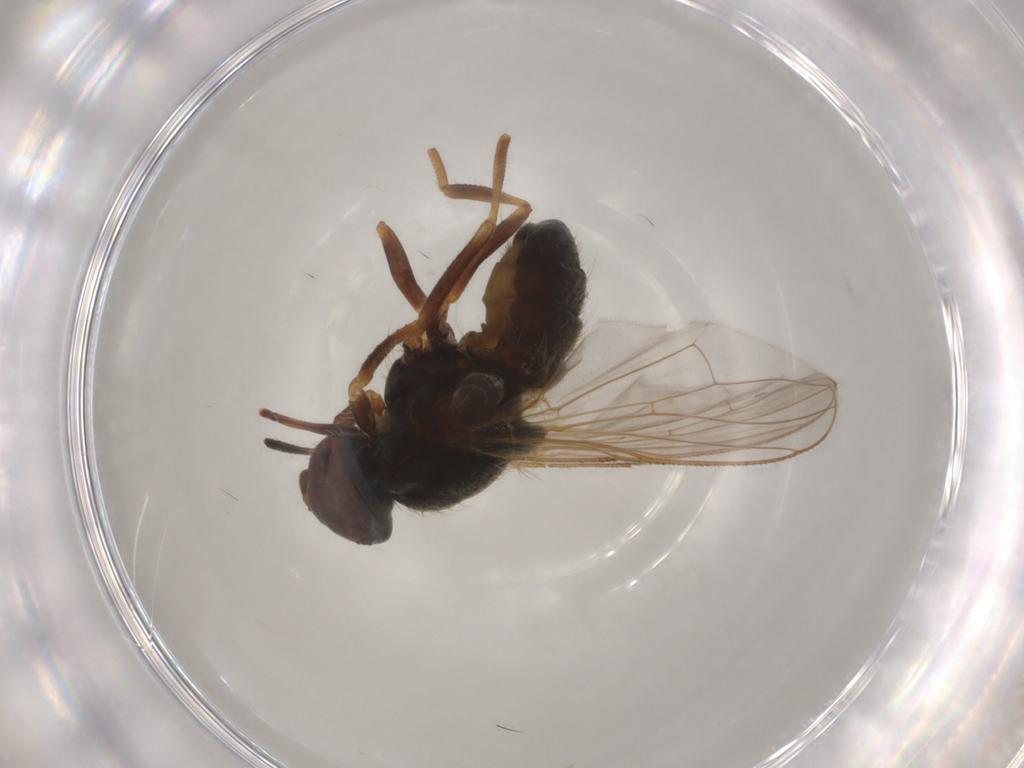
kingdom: Animalia
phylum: Arthropoda
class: Insecta
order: Diptera
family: Muscidae
